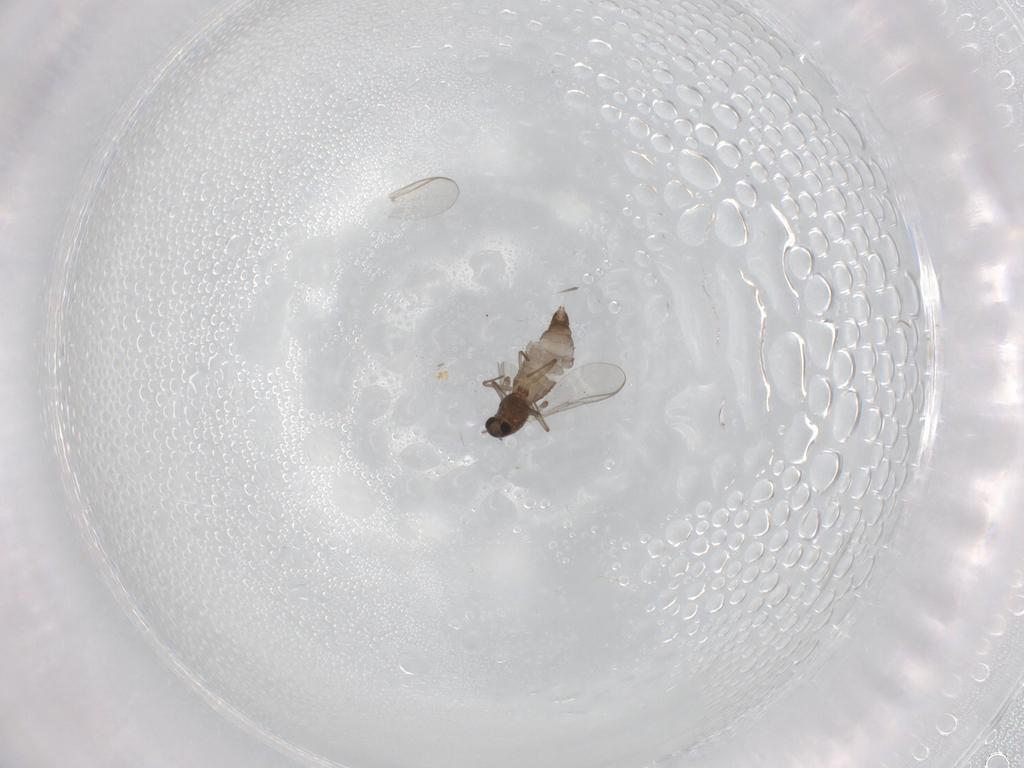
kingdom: Animalia
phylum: Arthropoda
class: Insecta
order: Diptera
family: Chironomidae
